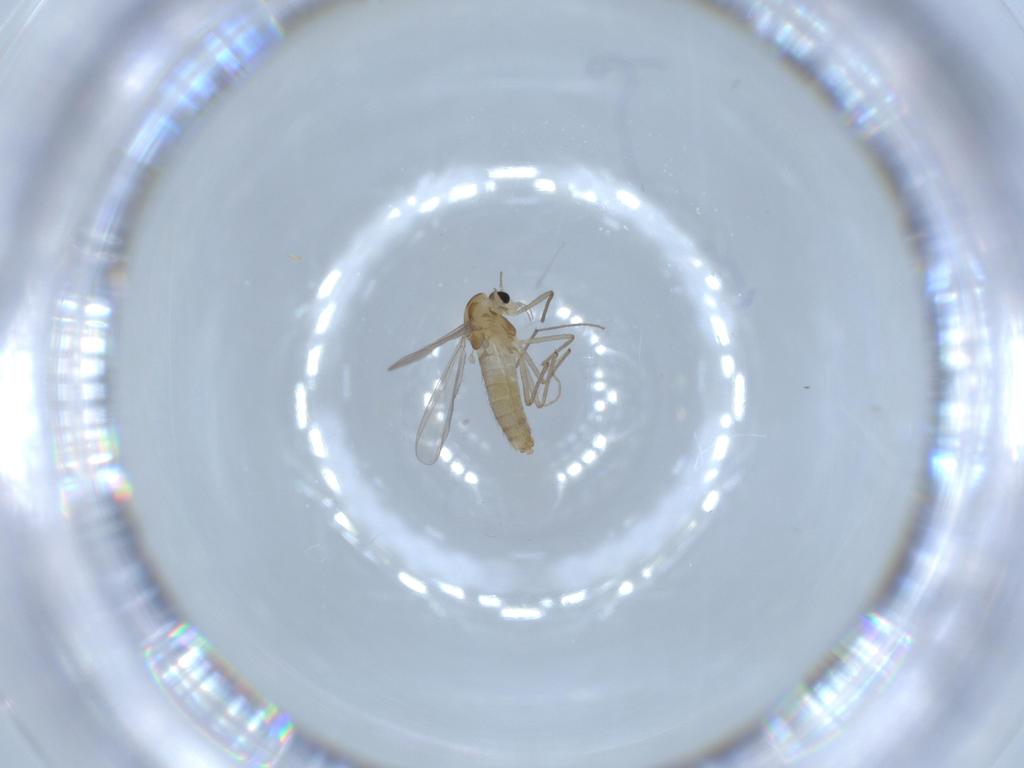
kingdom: Animalia
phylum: Arthropoda
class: Insecta
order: Diptera
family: Chironomidae
